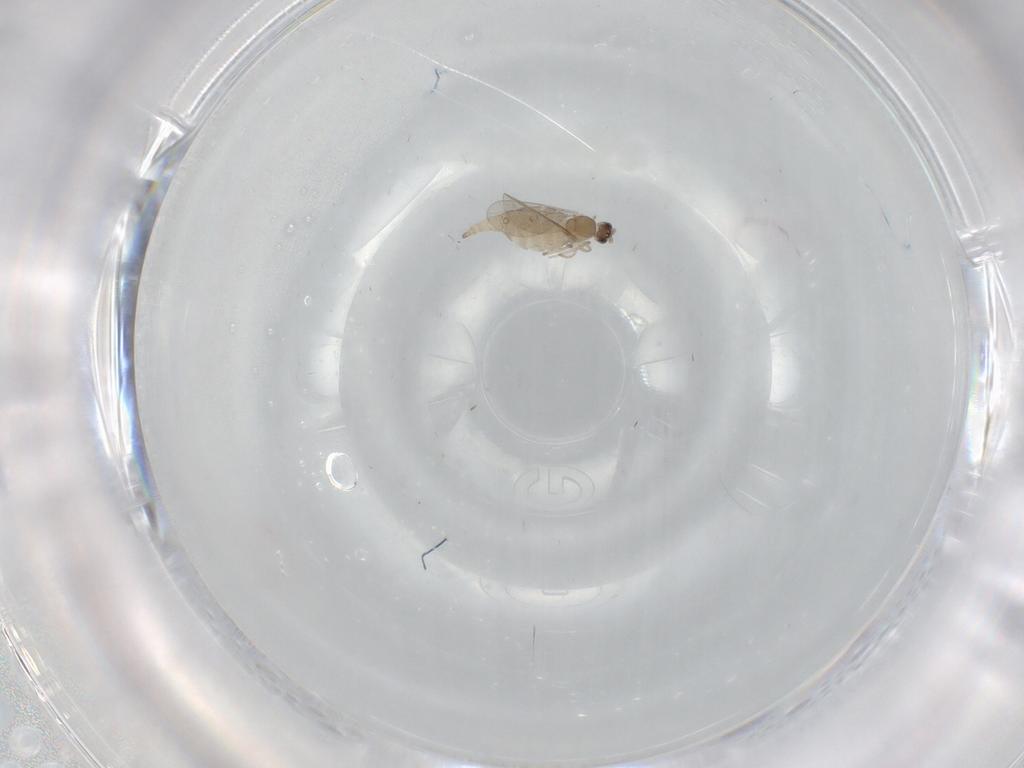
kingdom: Animalia
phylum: Arthropoda
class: Insecta
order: Diptera
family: Cecidomyiidae
